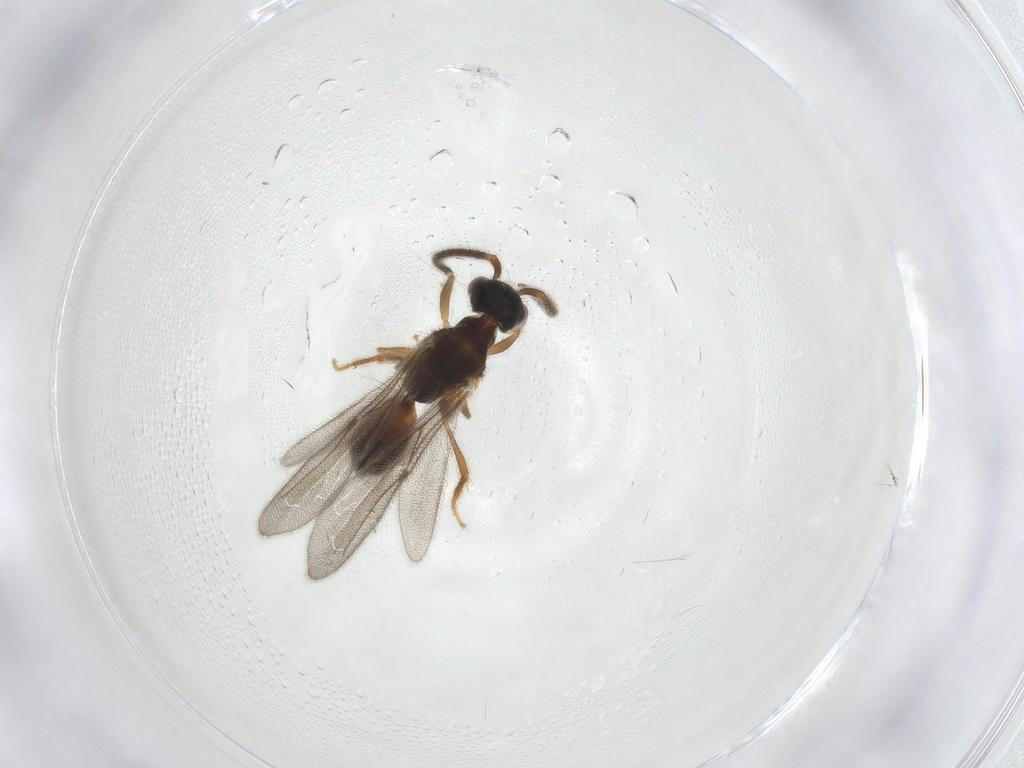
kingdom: Animalia
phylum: Arthropoda
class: Insecta
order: Hymenoptera
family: Bethylidae
